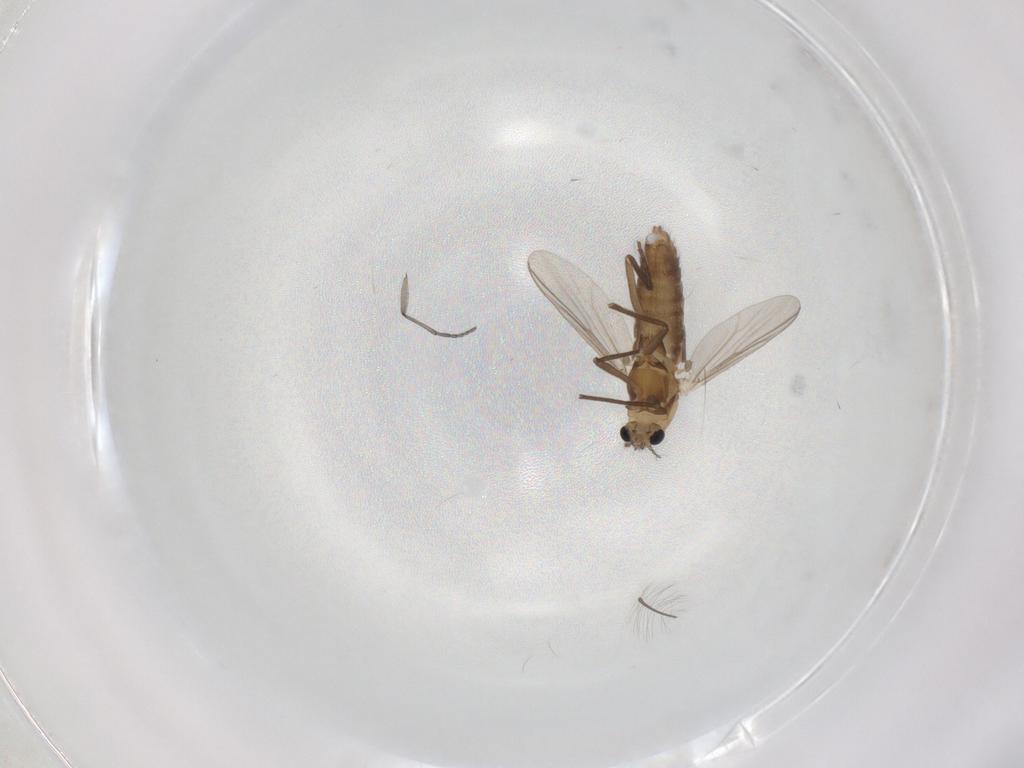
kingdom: Animalia
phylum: Arthropoda
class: Insecta
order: Diptera
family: Chironomidae
